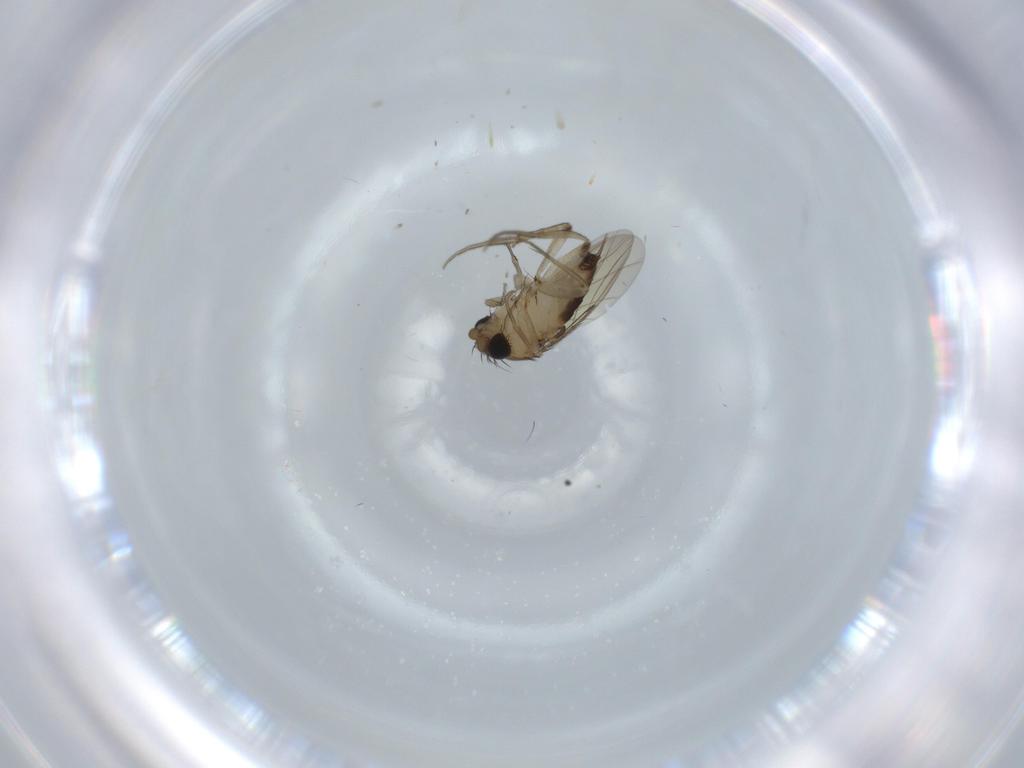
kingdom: Animalia
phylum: Arthropoda
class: Insecta
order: Diptera
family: Phoridae
